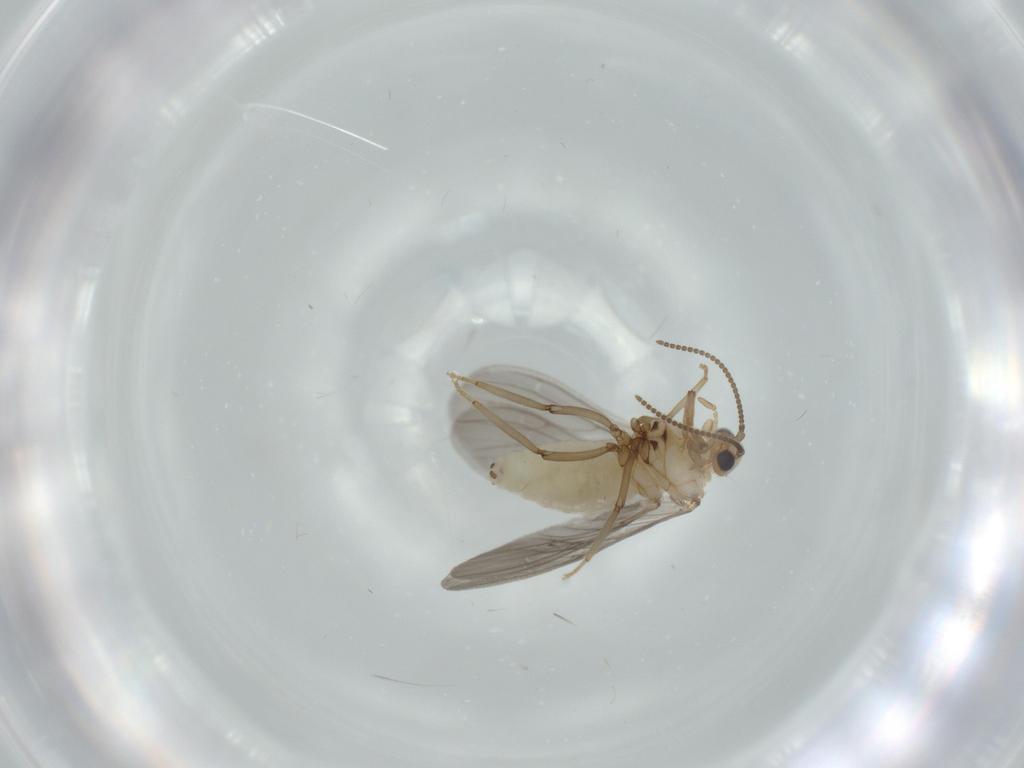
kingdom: Animalia
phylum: Arthropoda
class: Insecta
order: Neuroptera
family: Coniopterygidae
